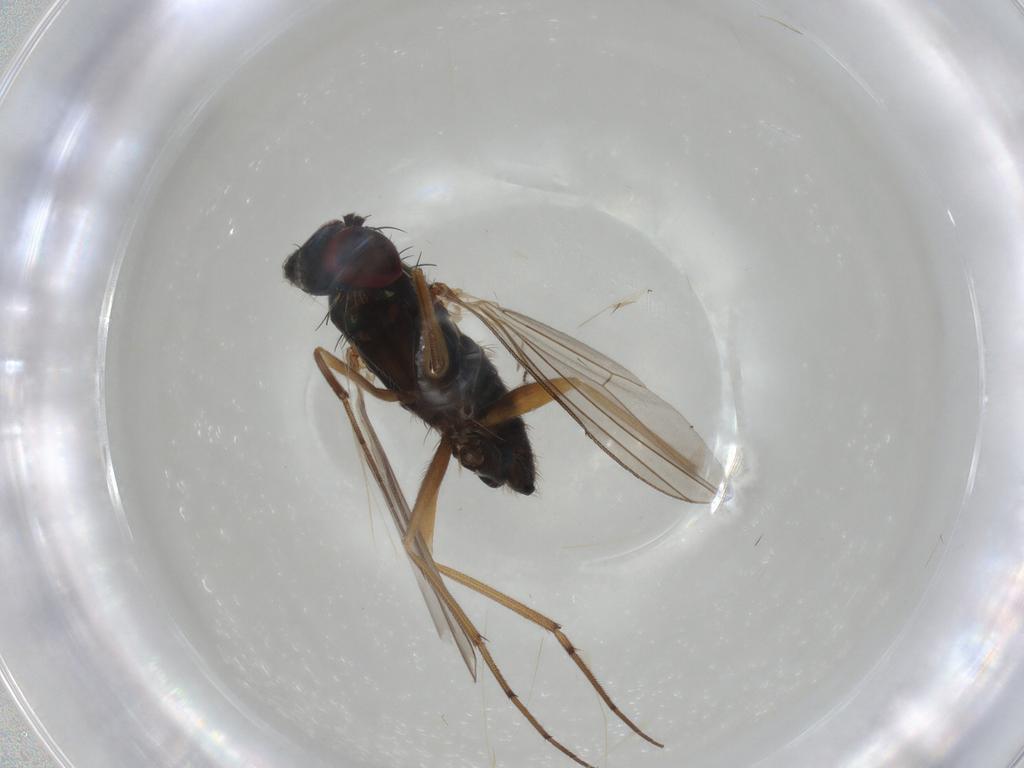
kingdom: Animalia
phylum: Arthropoda
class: Insecta
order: Diptera
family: Dolichopodidae
